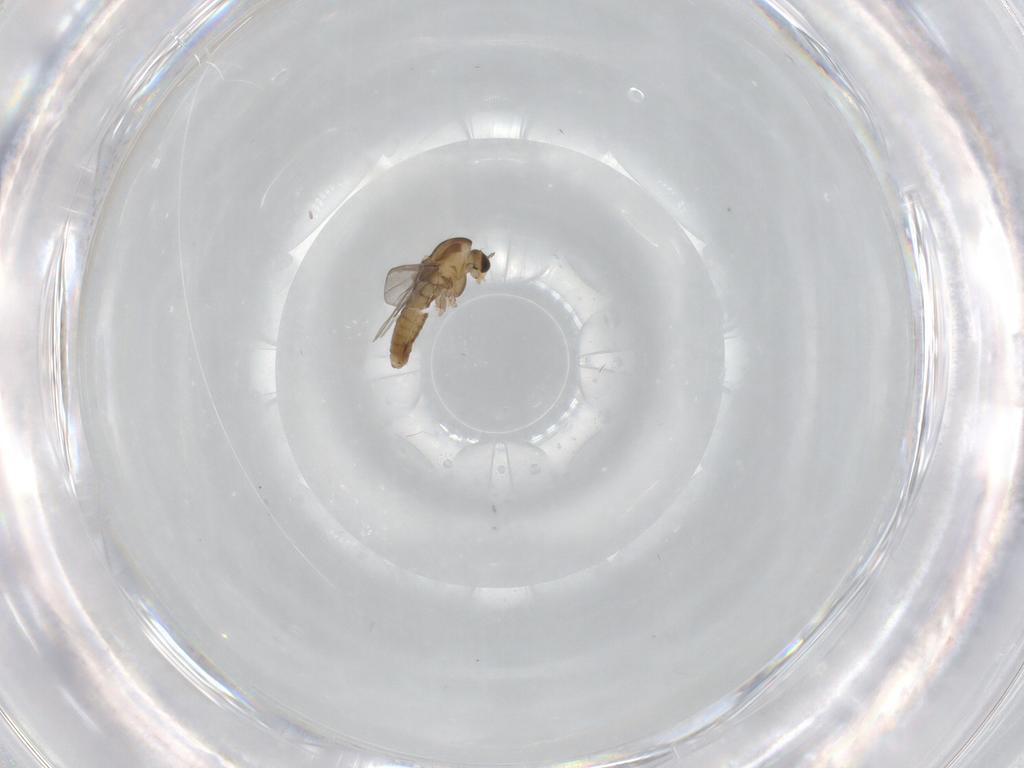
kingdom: Animalia
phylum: Arthropoda
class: Insecta
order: Diptera
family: Chironomidae
